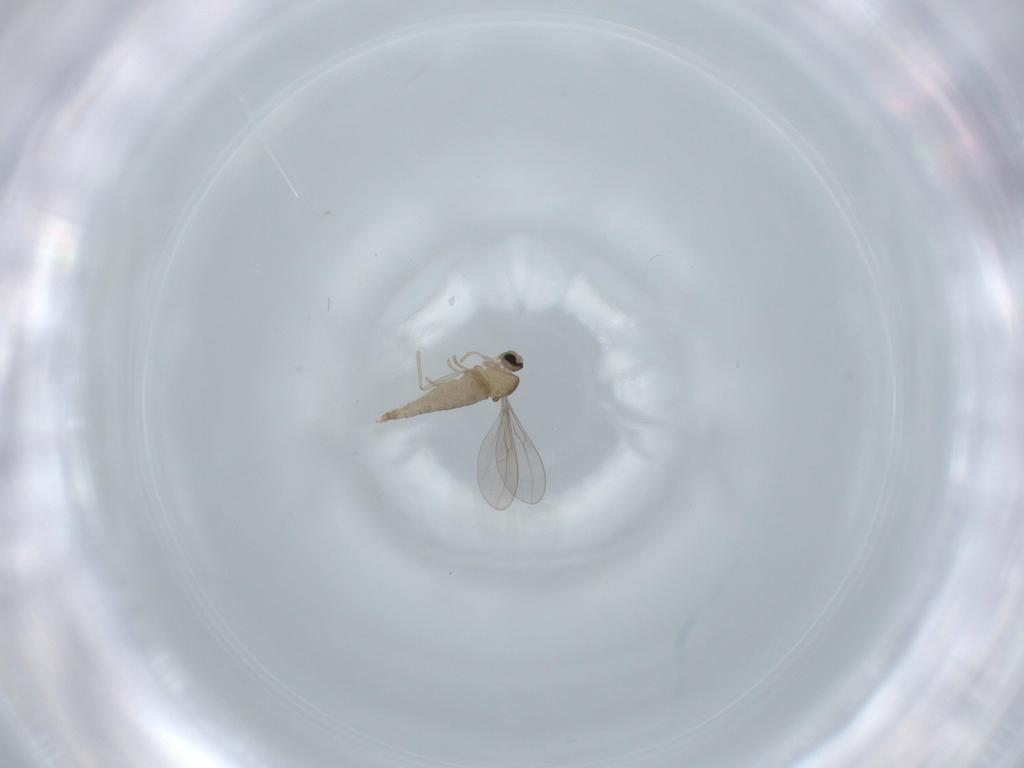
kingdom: Animalia
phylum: Arthropoda
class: Insecta
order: Diptera
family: Cecidomyiidae
